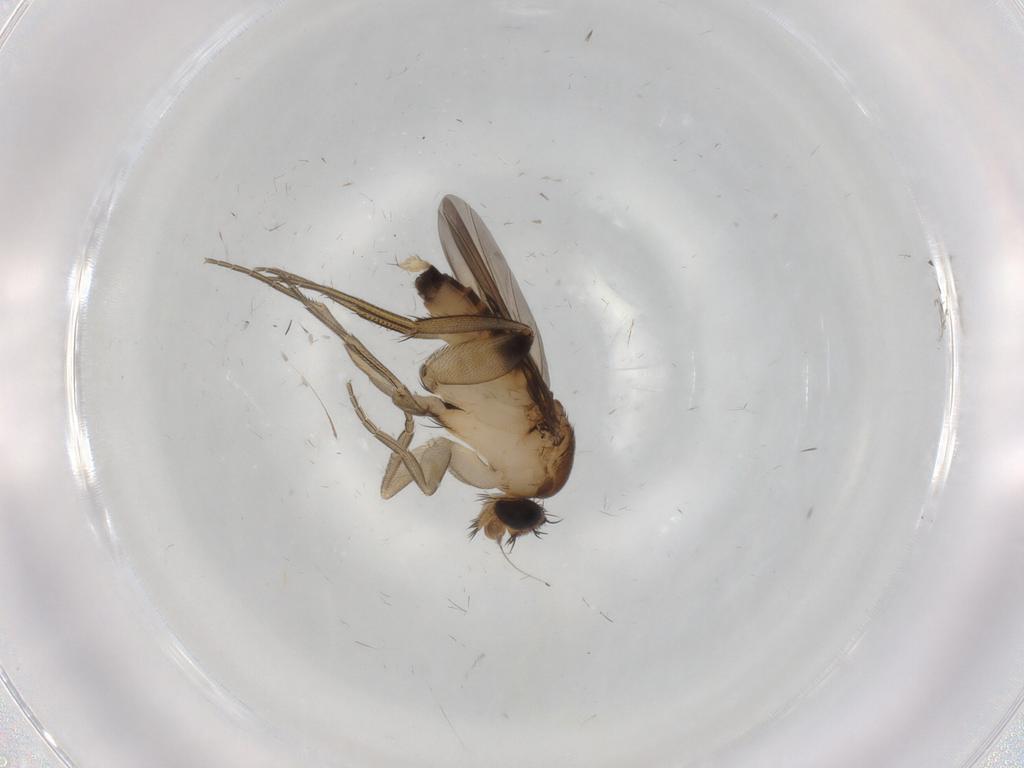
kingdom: Animalia
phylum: Arthropoda
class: Insecta
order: Diptera
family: Phoridae
